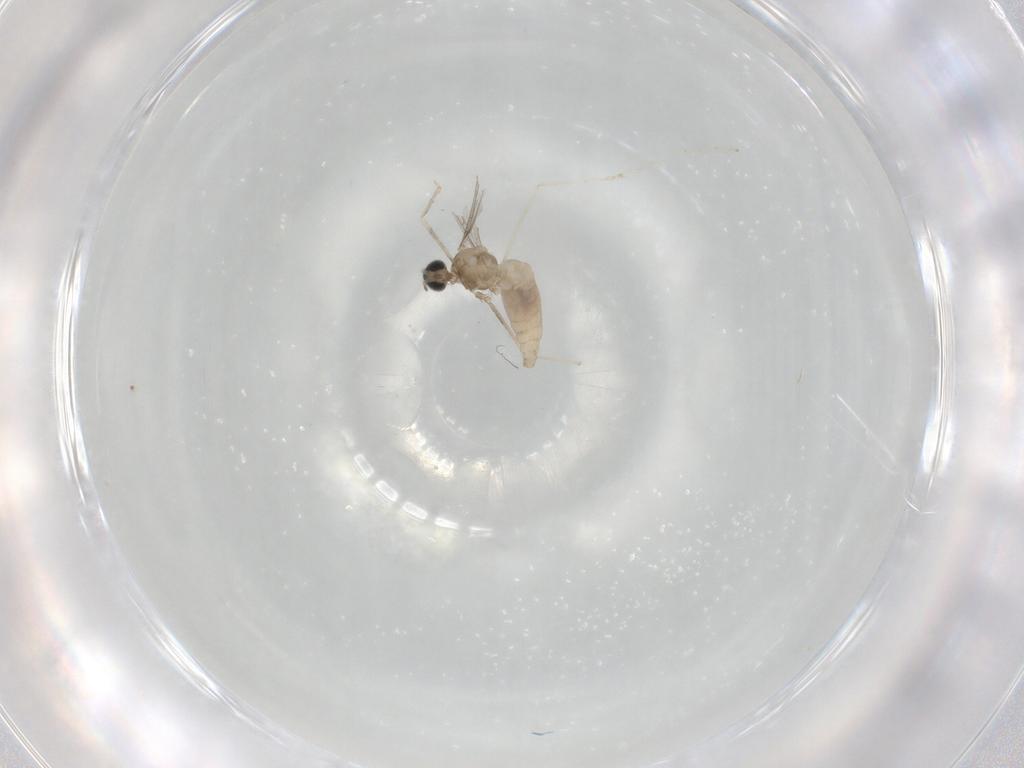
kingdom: Animalia
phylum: Arthropoda
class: Insecta
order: Diptera
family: Cecidomyiidae
